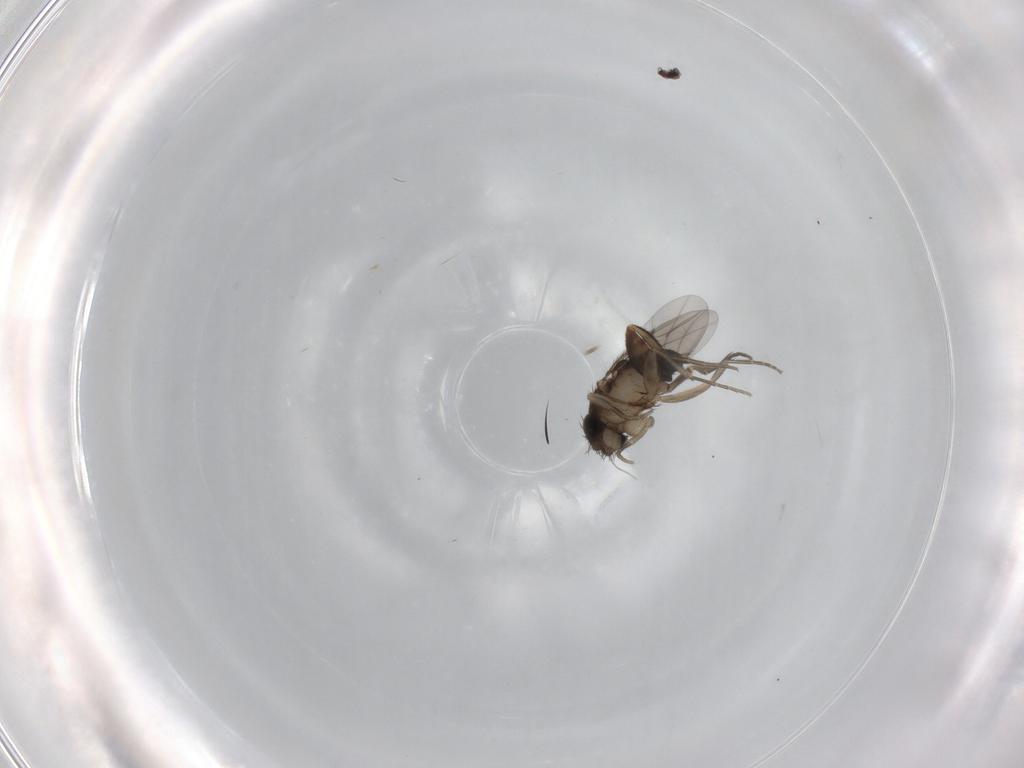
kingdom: Animalia
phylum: Arthropoda
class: Insecta
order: Diptera
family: Phoridae
